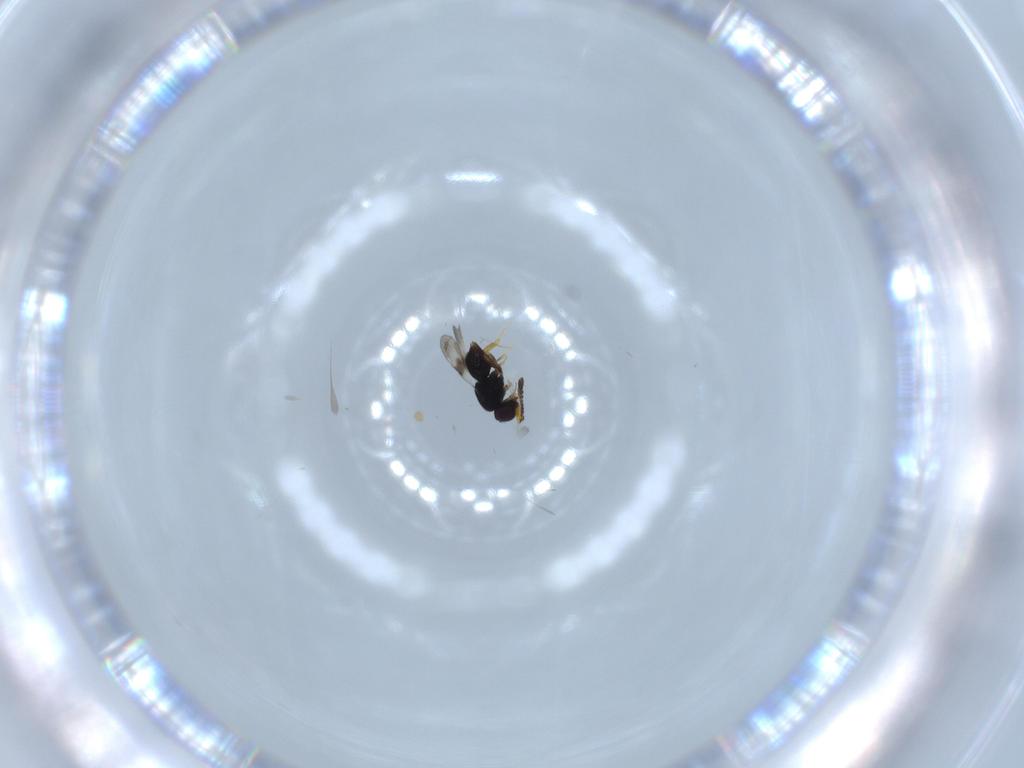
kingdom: Animalia
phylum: Arthropoda
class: Insecta
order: Hymenoptera
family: Ceraphronidae
